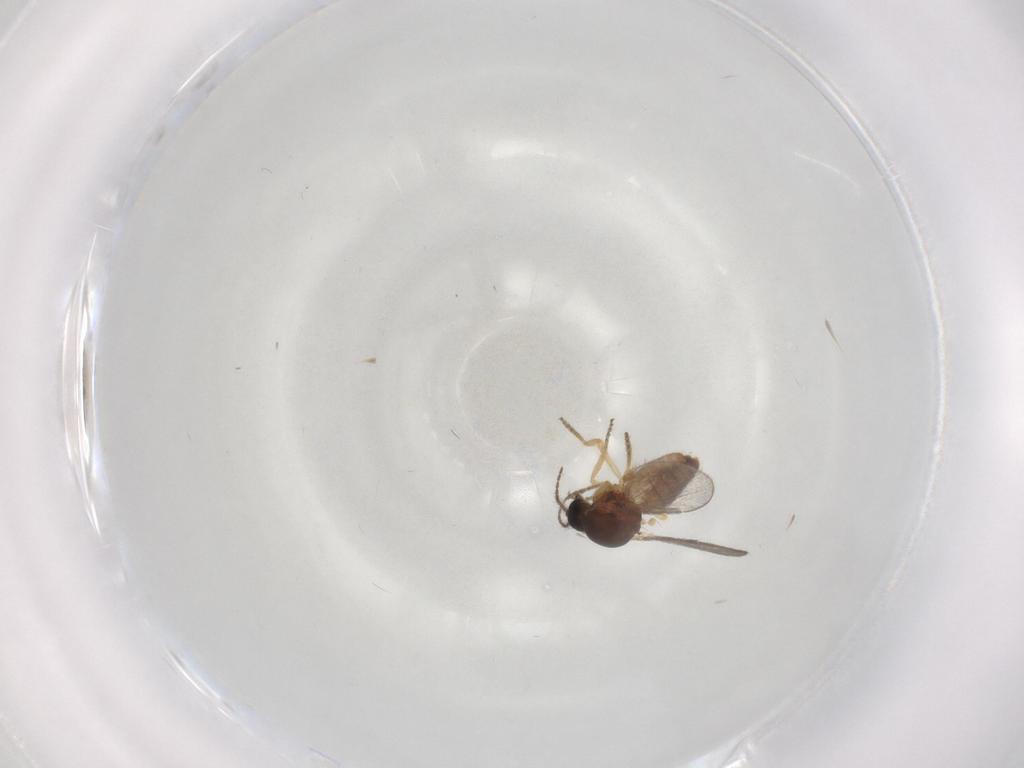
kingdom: Animalia
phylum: Arthropoda
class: Insecta
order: Diptera
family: Ceratopogonidae
